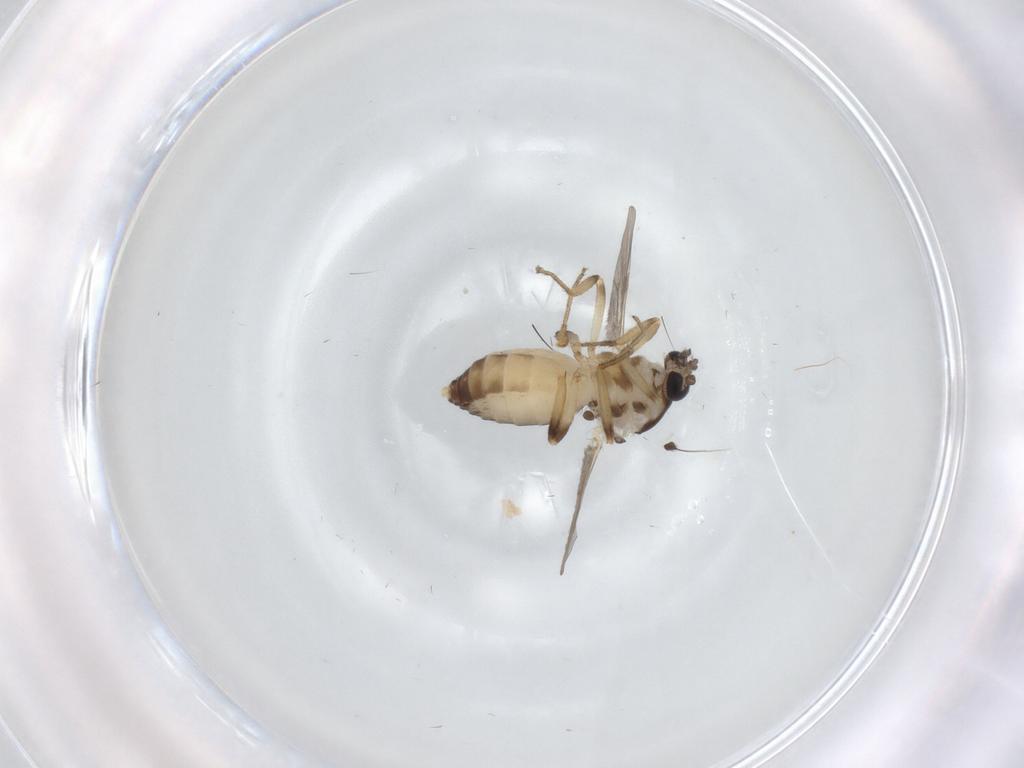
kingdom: Animalia
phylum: Arthropoda
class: Insecta
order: Diptera
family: Ceratopogonidae
